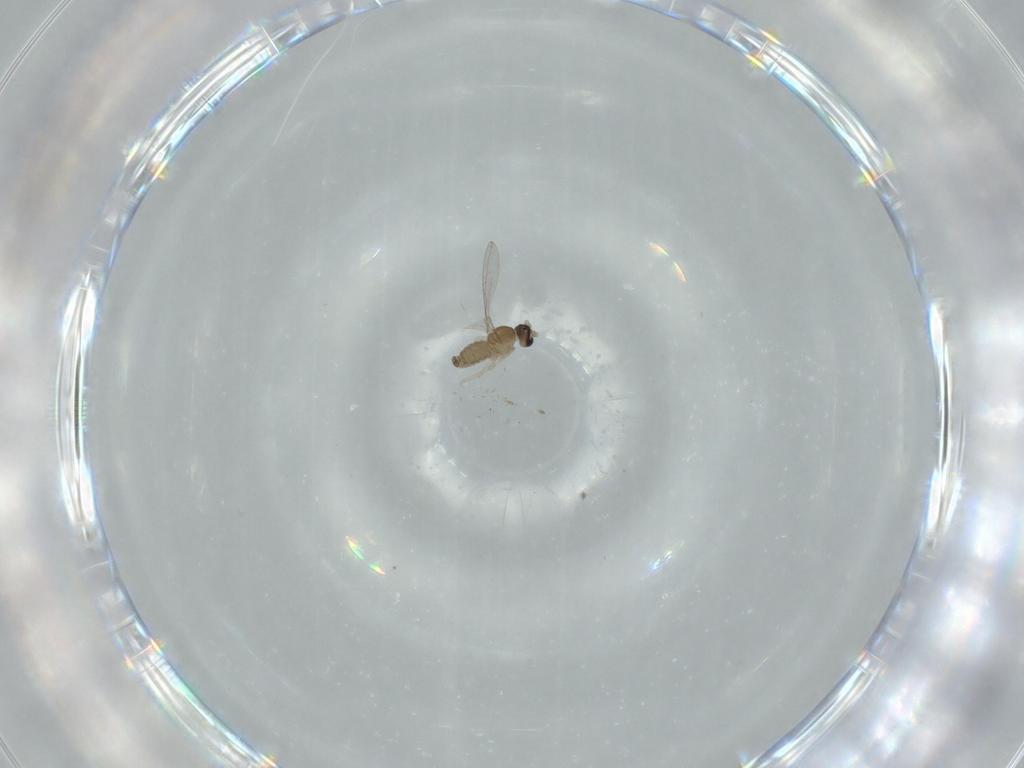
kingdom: Animalia
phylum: Arthropoda
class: Insecta
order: Diptera
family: Cecidomyiidae
